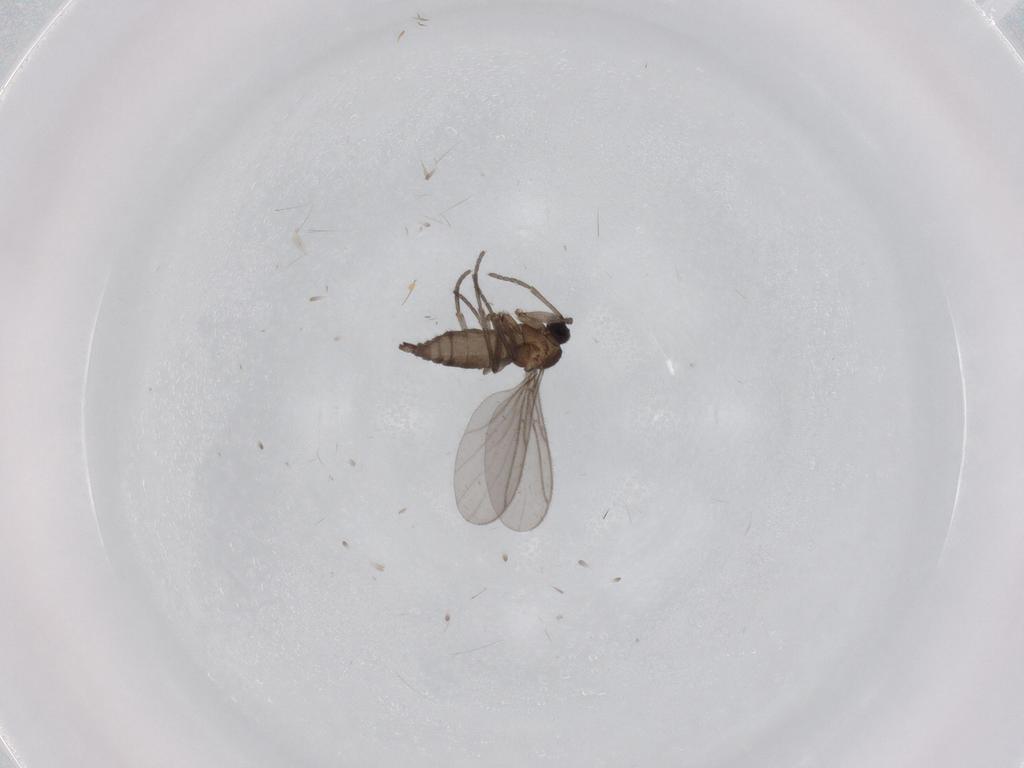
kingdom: Animalia
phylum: Arthropoda
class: Insecta
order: Diptera
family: Sciaridae
